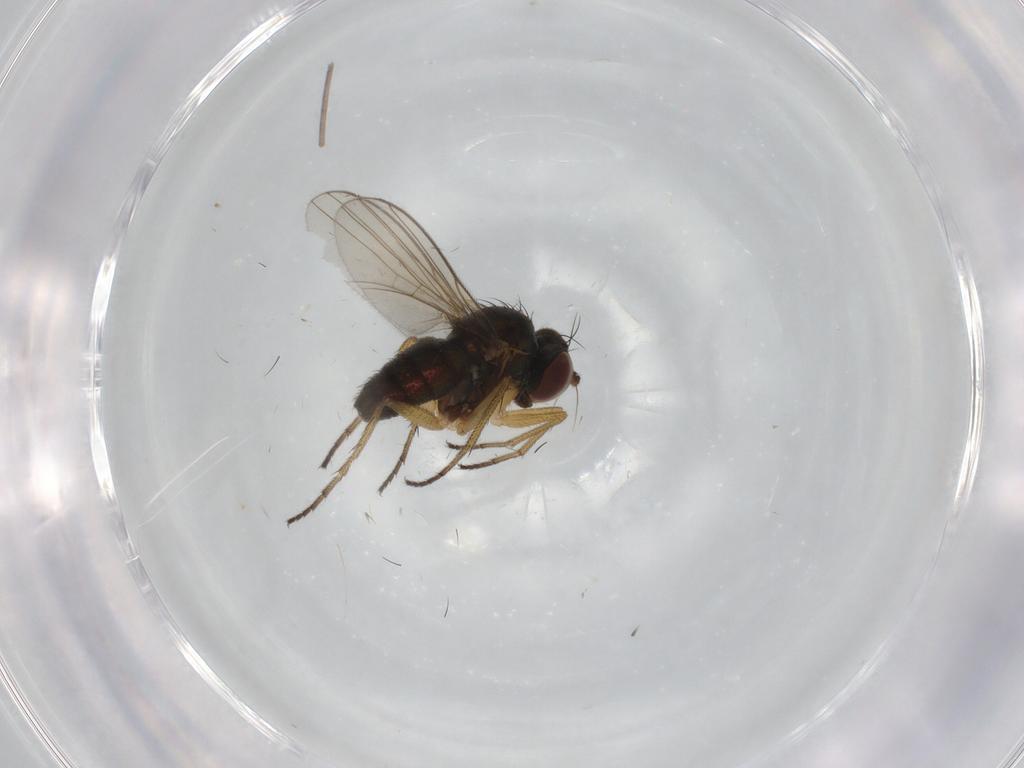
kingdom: Animalia
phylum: Arthropoda
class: Insecta
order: Diptera
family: Dolichopodidae
